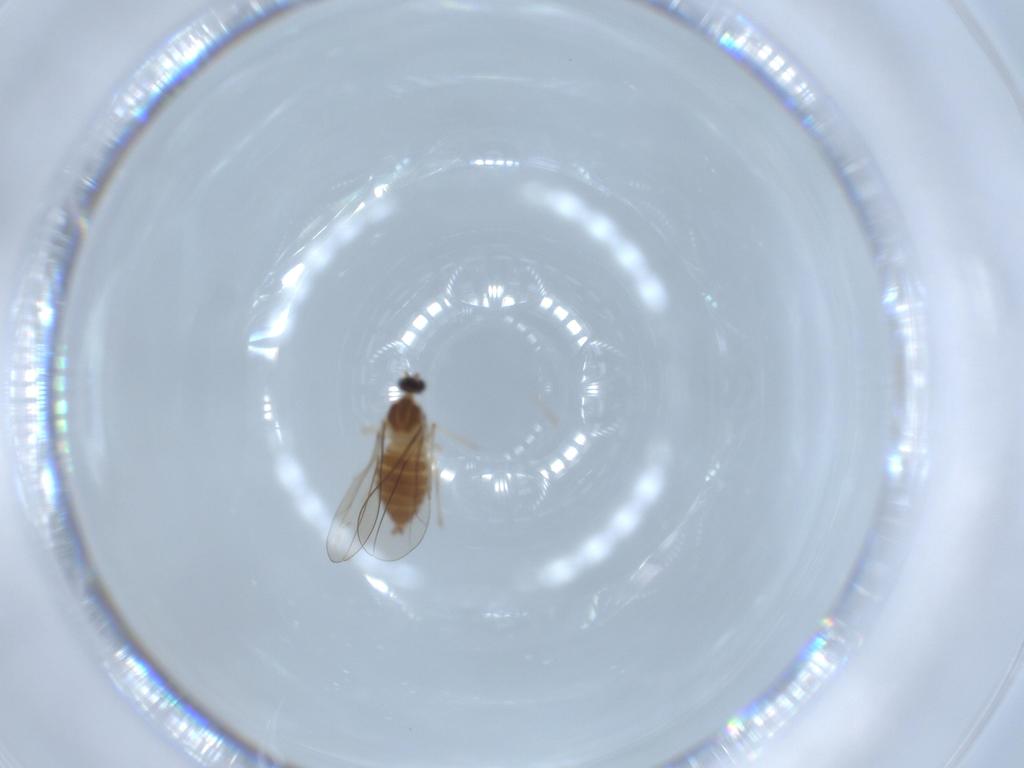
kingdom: Animalia
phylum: Arthropoda
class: Insecta
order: Diptera
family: Cecidomyiidae
